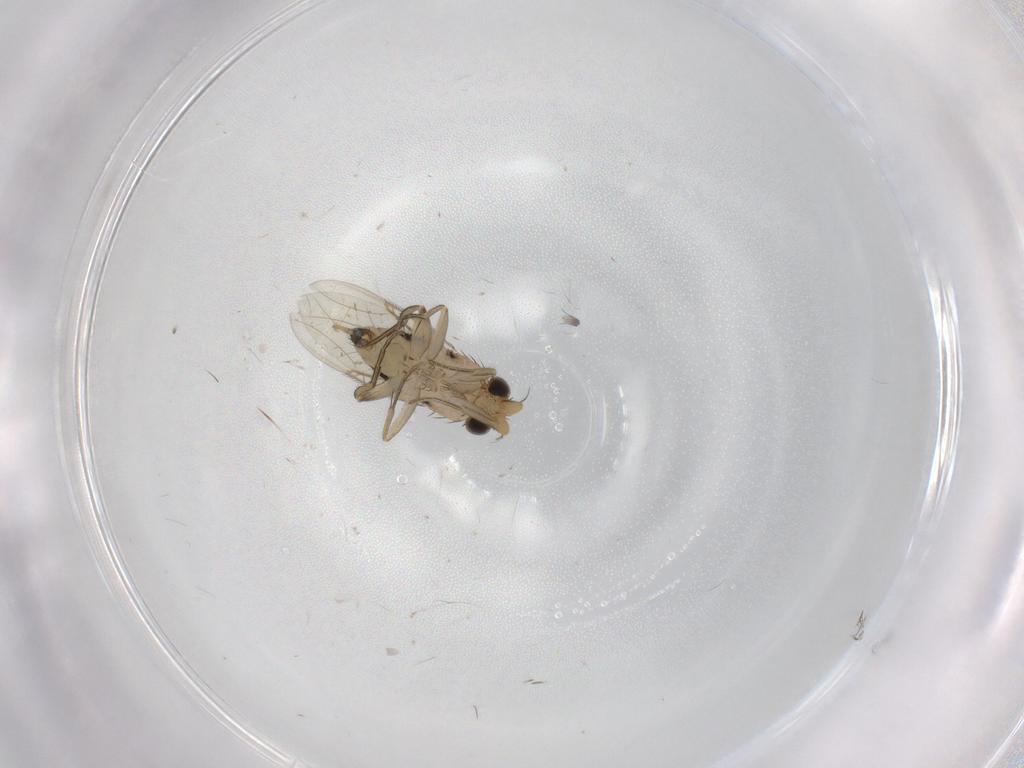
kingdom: Animalia
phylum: Arthropoda
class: Insecta
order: Diptera
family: Phoridae
